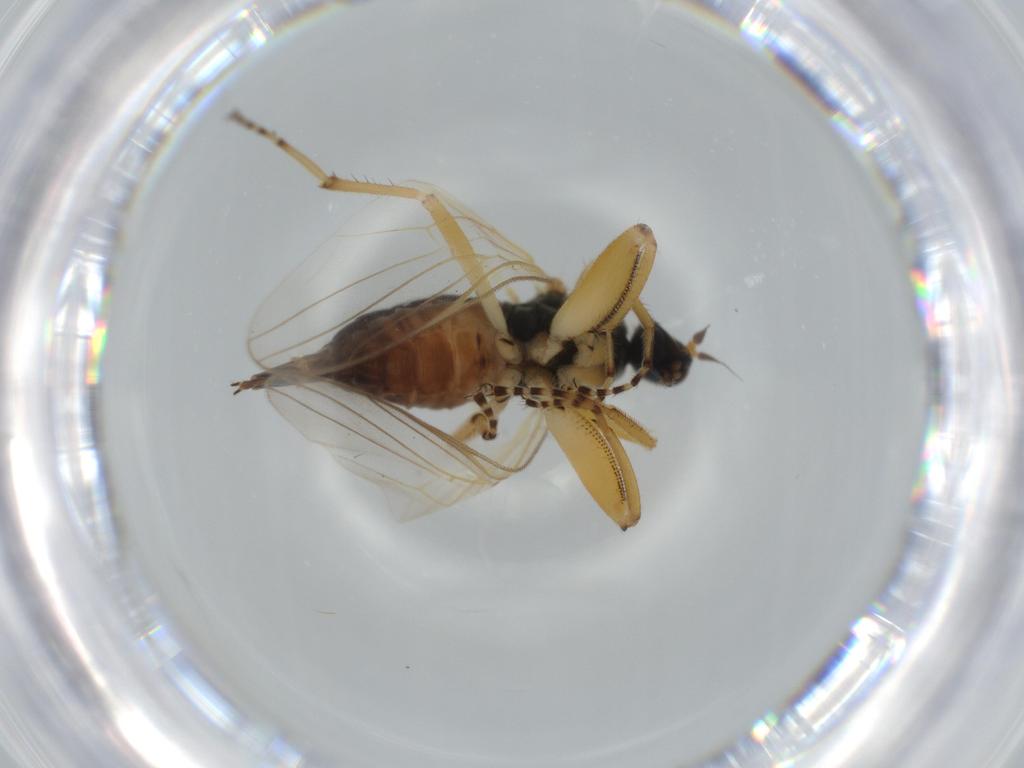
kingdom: Animalia
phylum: Arthropoda
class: Insecta
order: Diptera
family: Hybotidae
